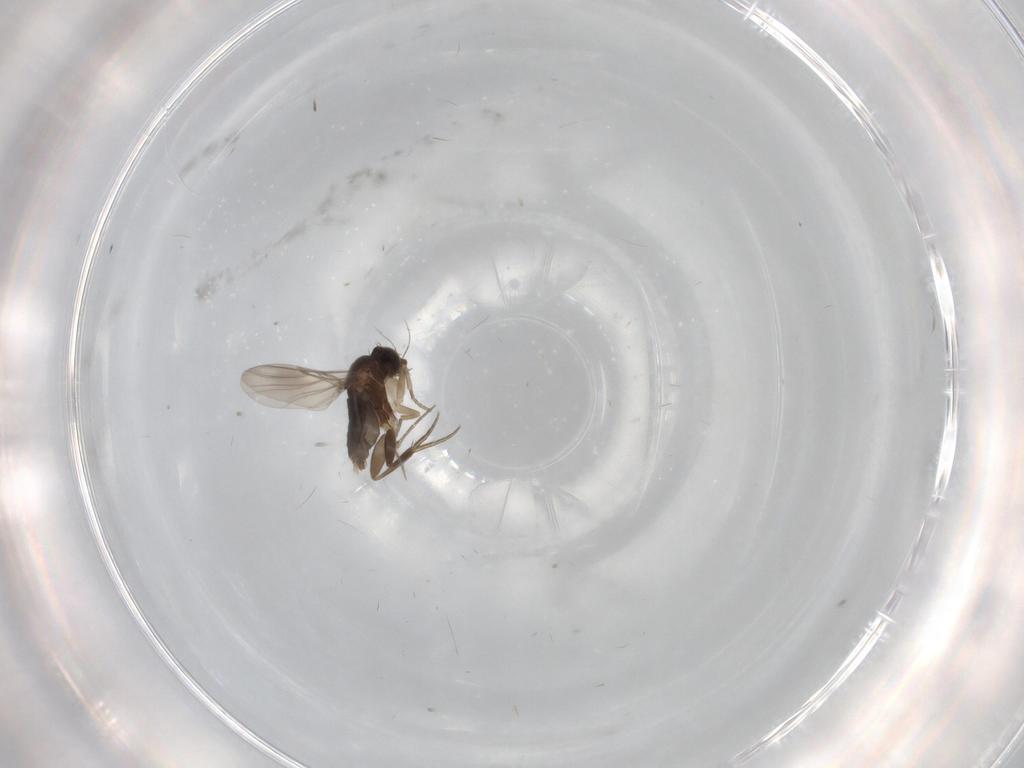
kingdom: Animalia
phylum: Arthropoda
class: Insecta
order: Diptera
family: Phoridae
